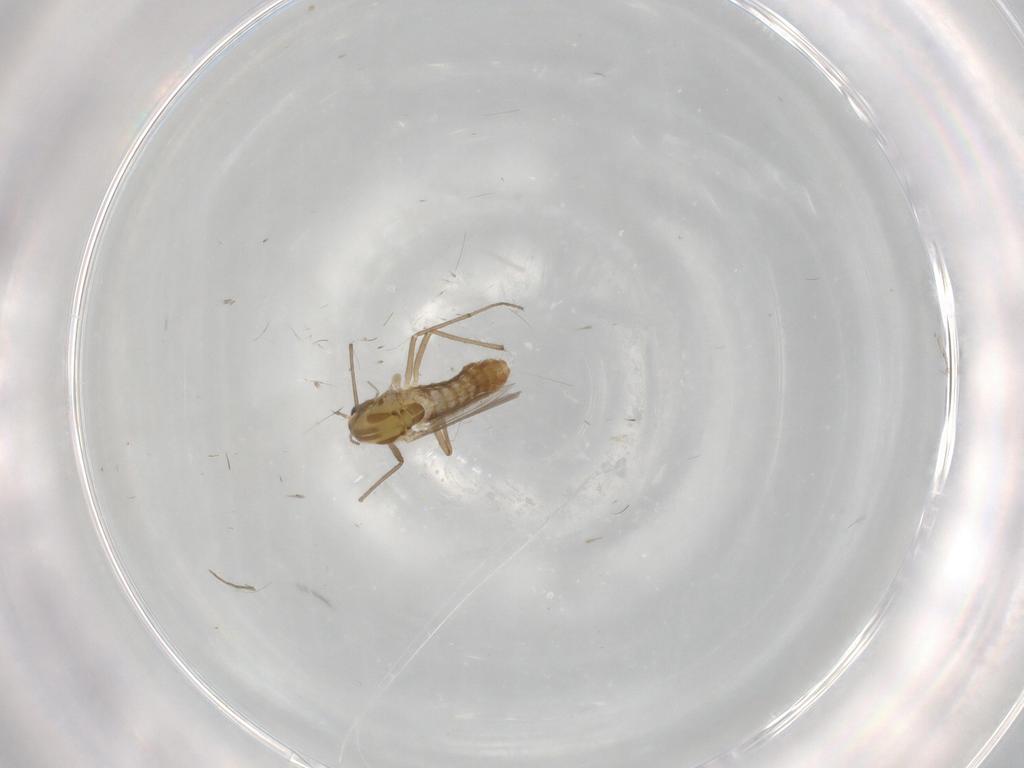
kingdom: Animalia
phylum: Arthropoda
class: Insecta
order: Diptera
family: Chironomidae
